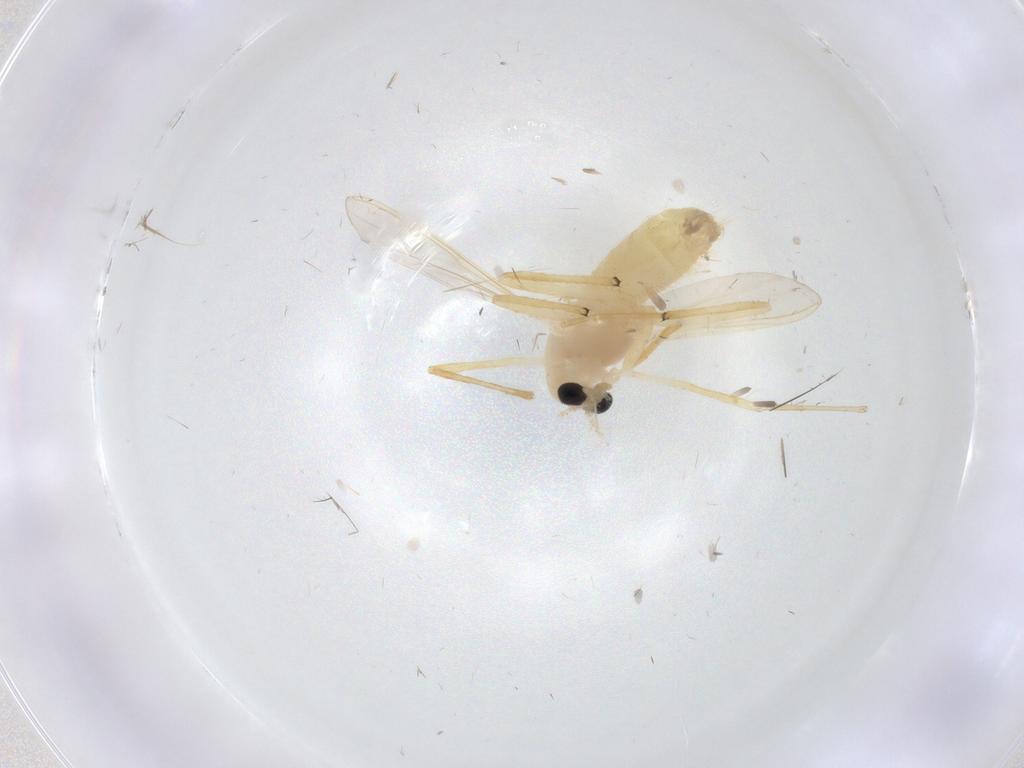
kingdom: Animalia
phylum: Arthropoda
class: Insecta
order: Diptera
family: Chironomidae
